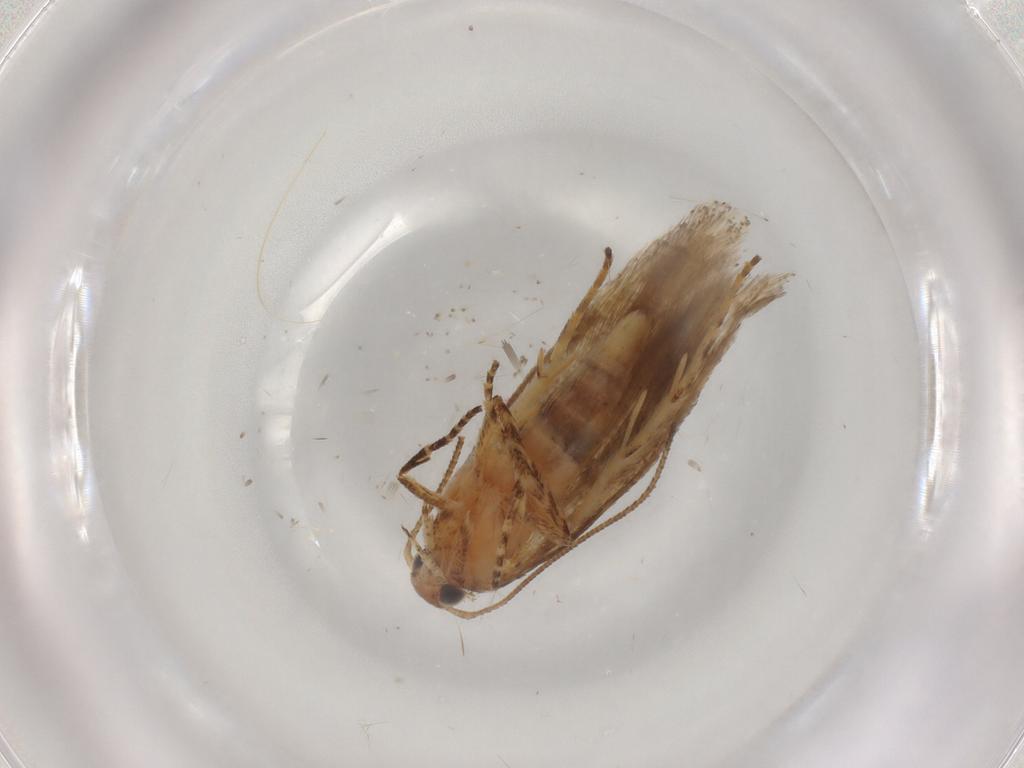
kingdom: Animalia
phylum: Arthropoda
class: Insecta
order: Lepidoptera
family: Gelechiidae
